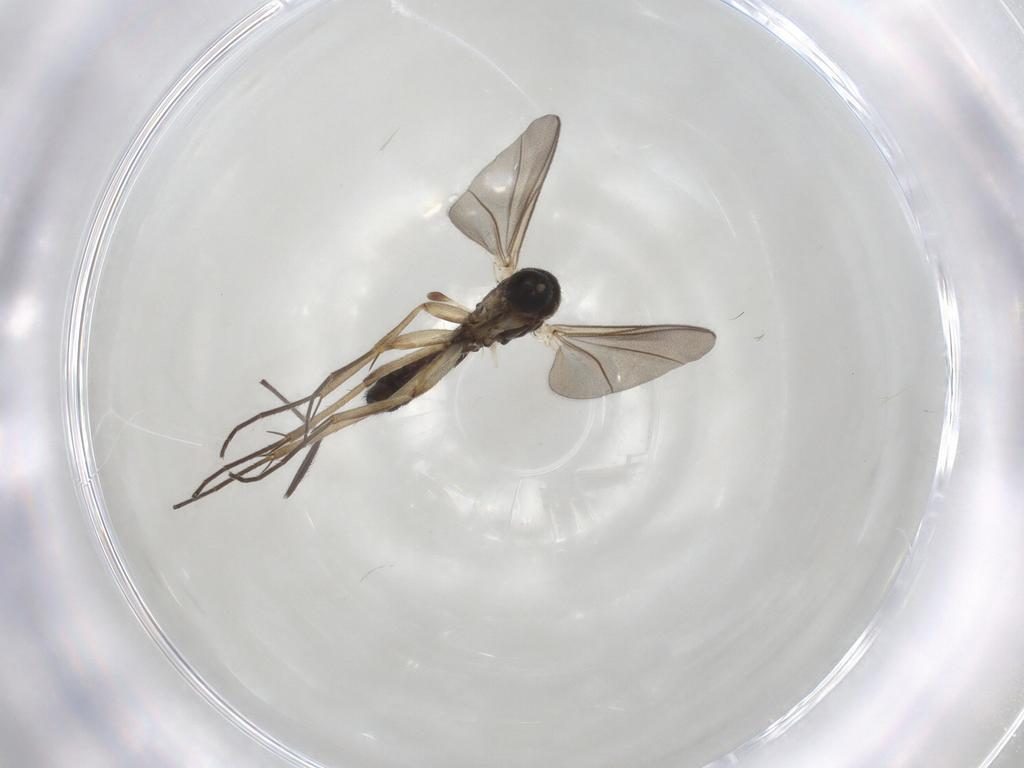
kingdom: Animalia
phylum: Arthropoda
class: Insecta
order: Diptera
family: Mycetophilidae
